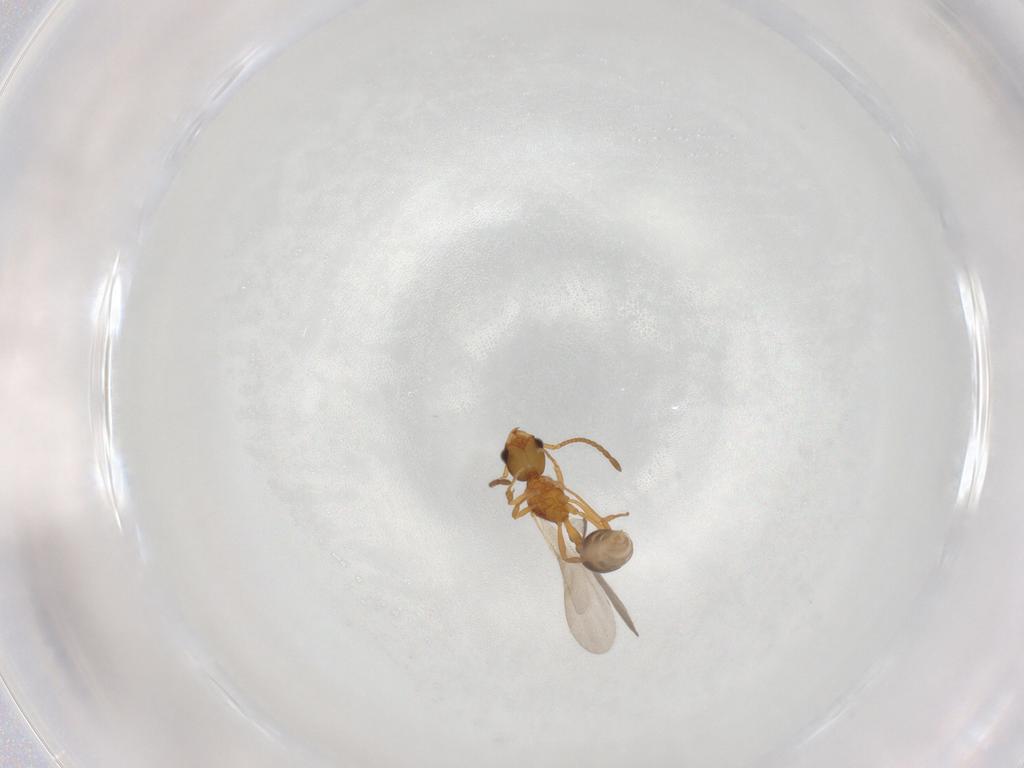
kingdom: Animalia
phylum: Arthropoda
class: Insecta
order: Hymenoptera
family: Formicidae
